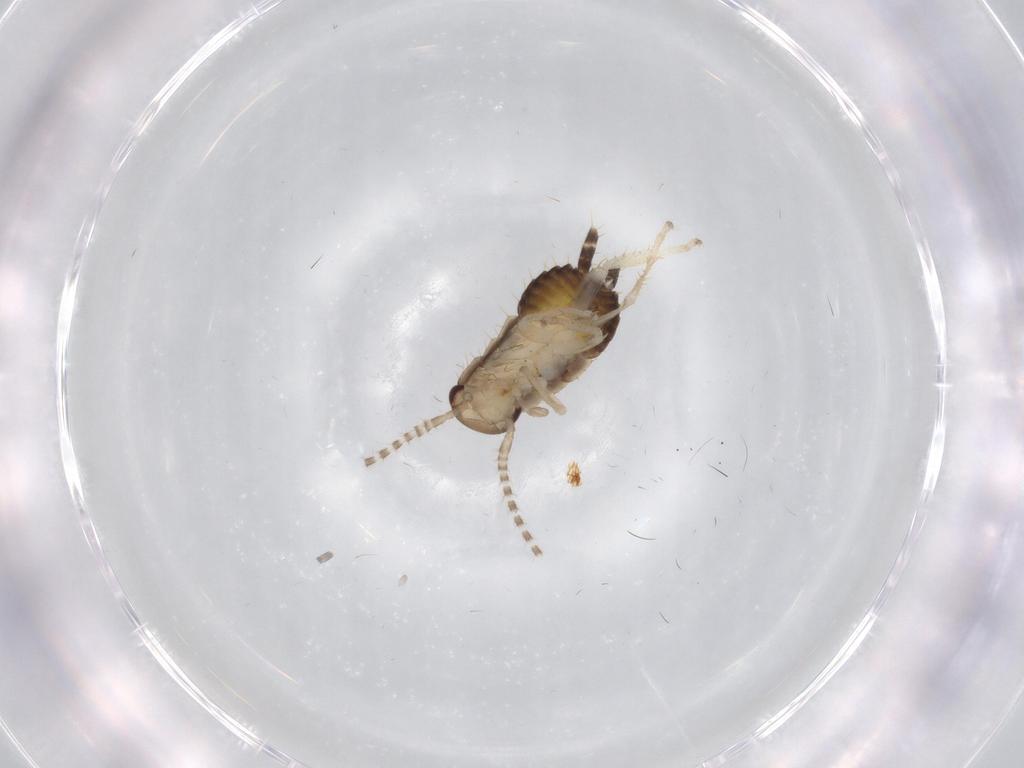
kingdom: Animalia
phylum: Arthropoda
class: Insecta
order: Blattodea
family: Ectobiidae
